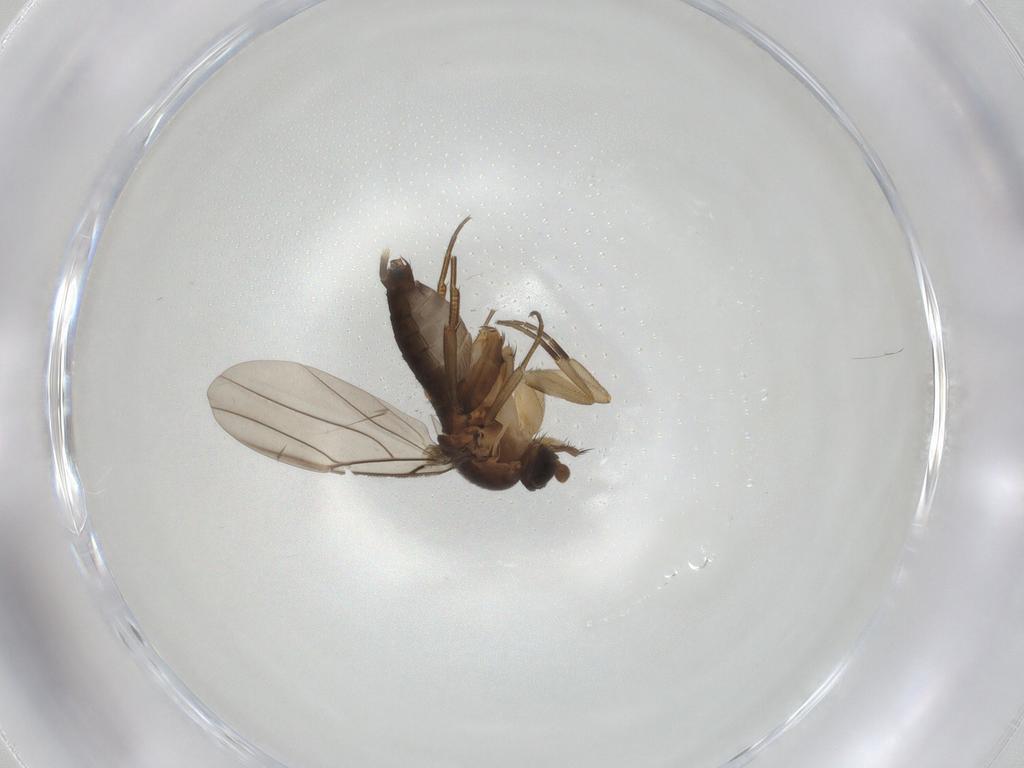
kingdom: Animalia
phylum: Arthropoda
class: Insecta
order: Diptera
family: Phoridae
